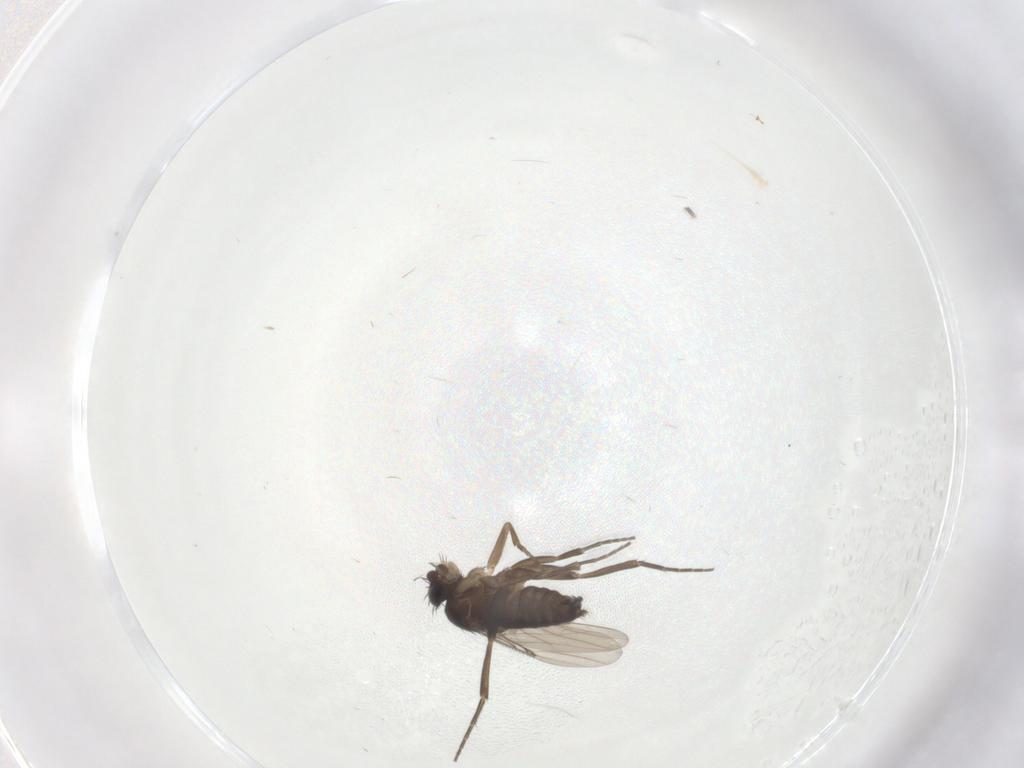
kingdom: Animalia
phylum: Arthropoda
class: Insecta
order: Diptera
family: Phoridae
